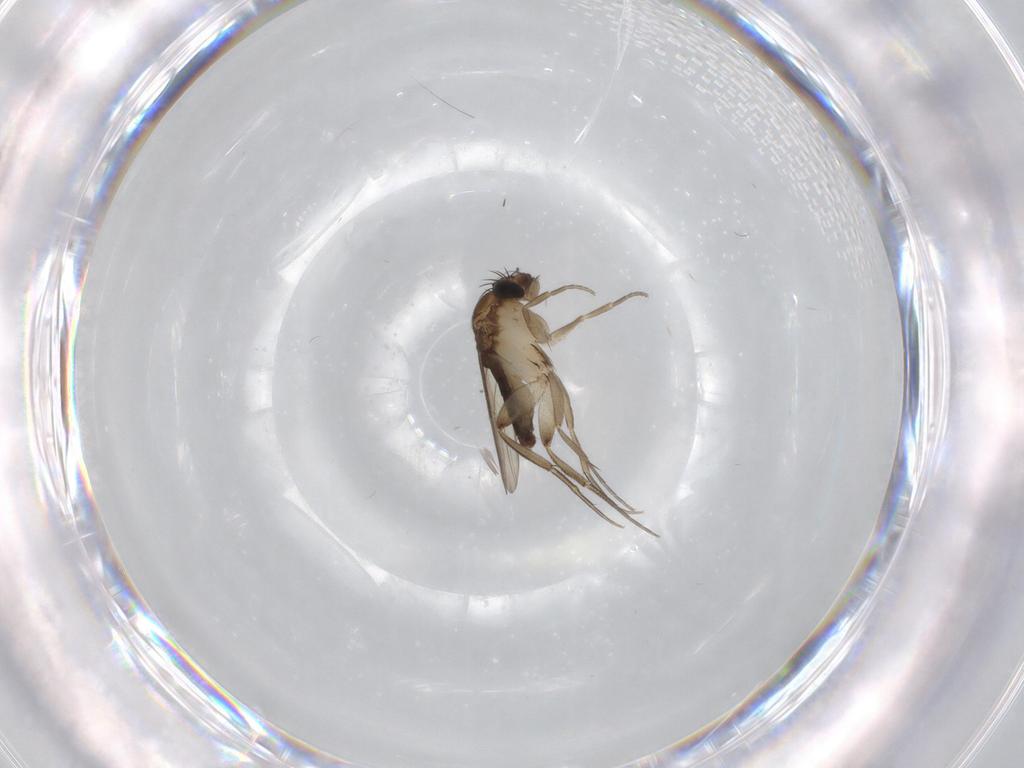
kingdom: Animalia
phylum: Arthropoda
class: Insecta
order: Diptera
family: Phoridae
